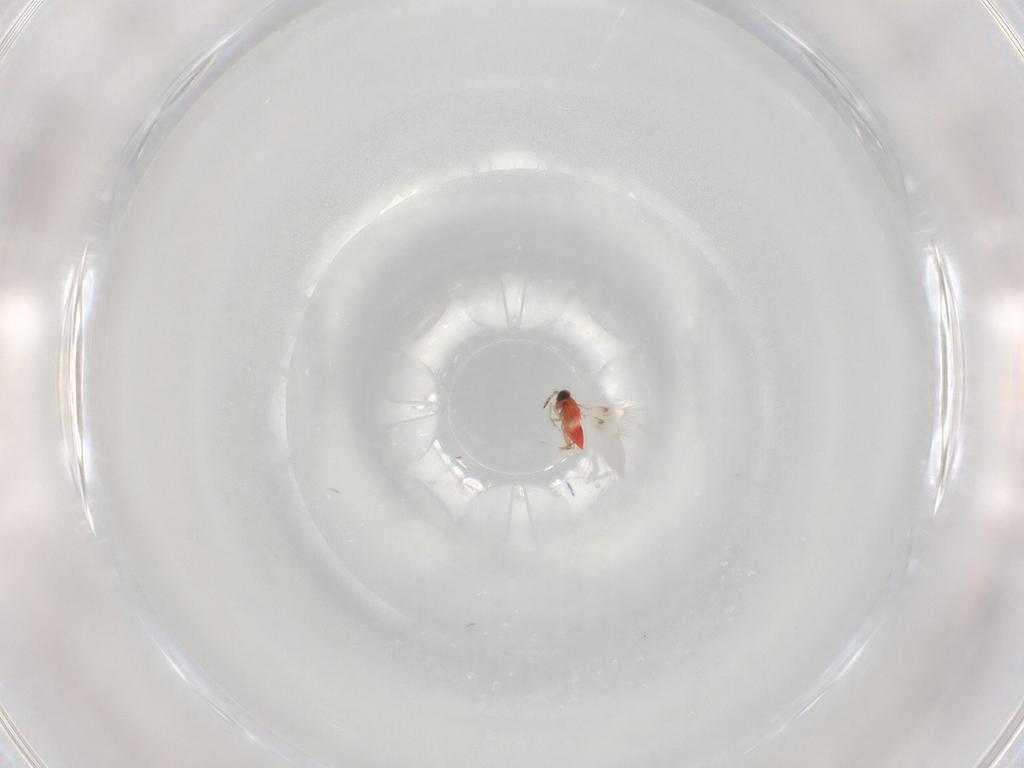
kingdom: Animalia
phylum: Arthropoda
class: Insecta
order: Hymenoptera
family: Trichogrammatidae
